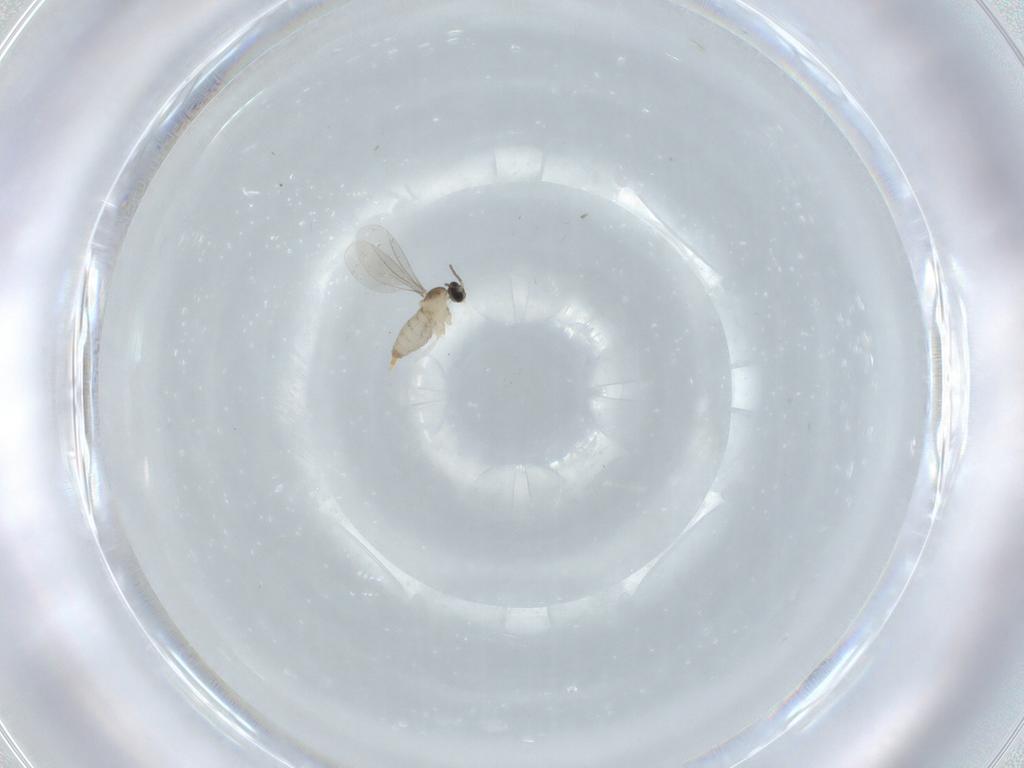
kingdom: Animalia
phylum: Arthropoda
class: Insecta
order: Diptera
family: Cecidomyiidae
